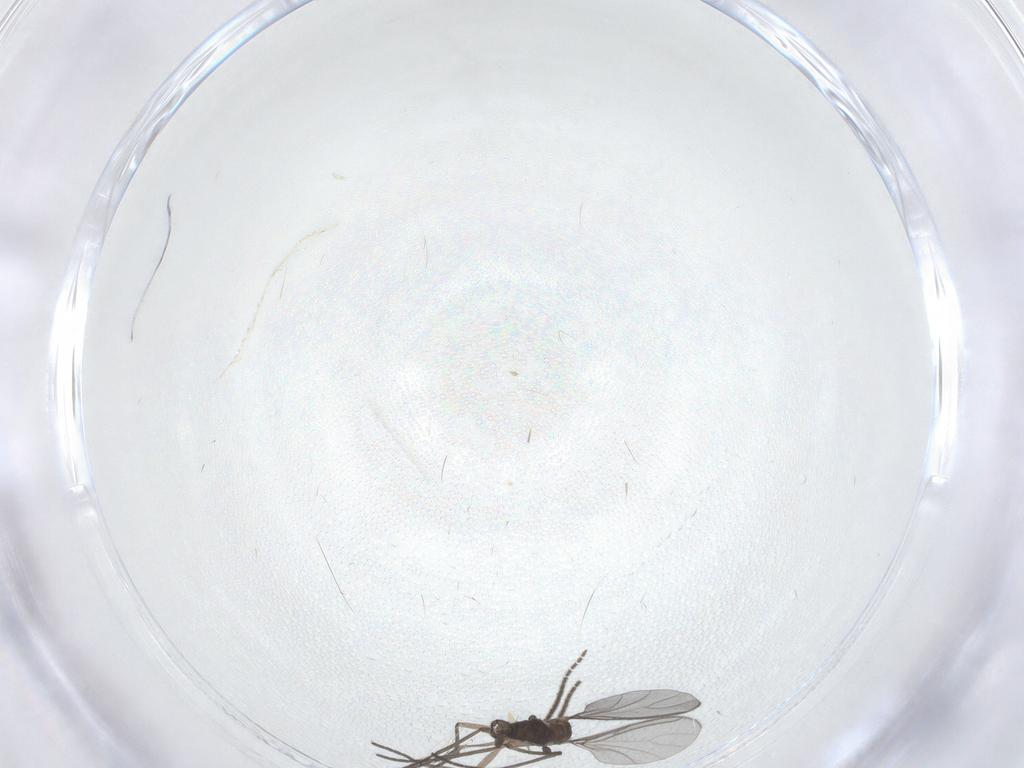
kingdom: Animalia
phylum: Arthropoda
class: Insecta
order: Diptera
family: Sciaridae
